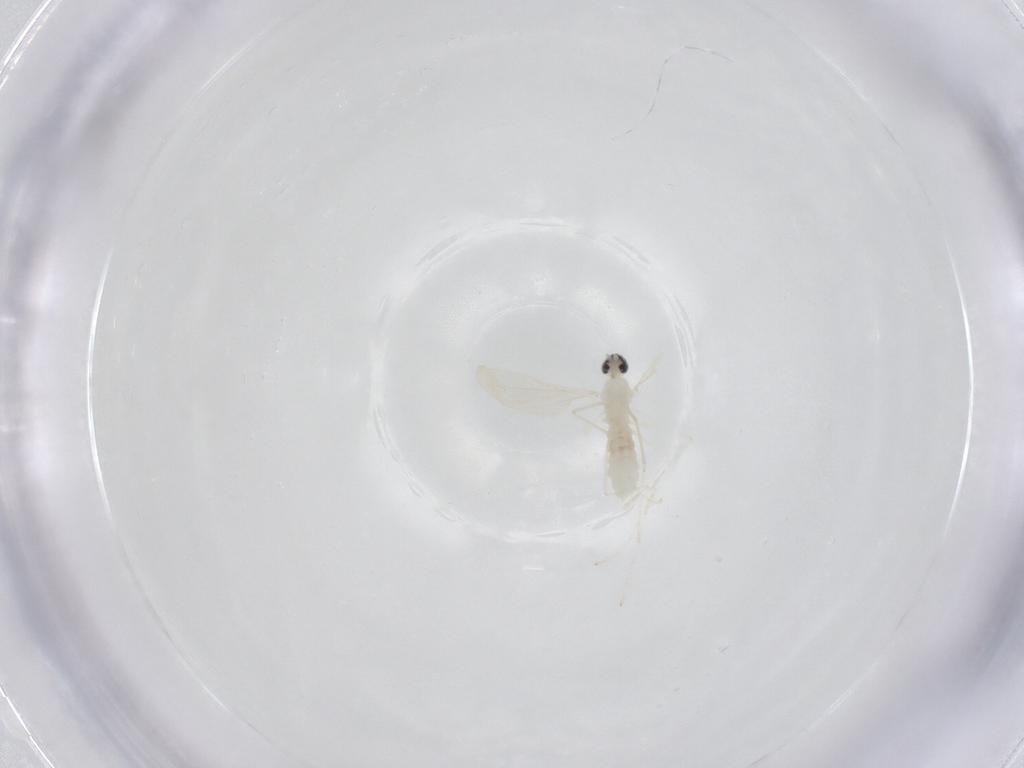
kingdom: Animalia
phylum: Arthropoda
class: Insecta
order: Diptera
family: Cecidomyiidae
